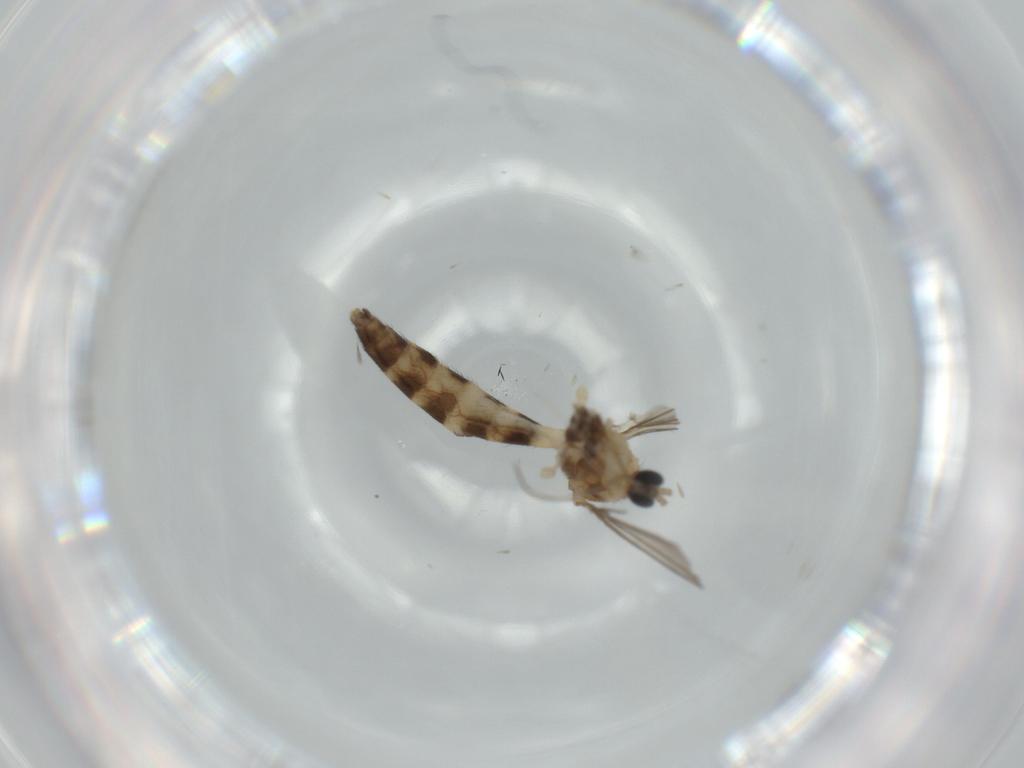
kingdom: Animalia
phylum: Arthropoda
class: Insecta
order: Diptera
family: Keroplatidae
